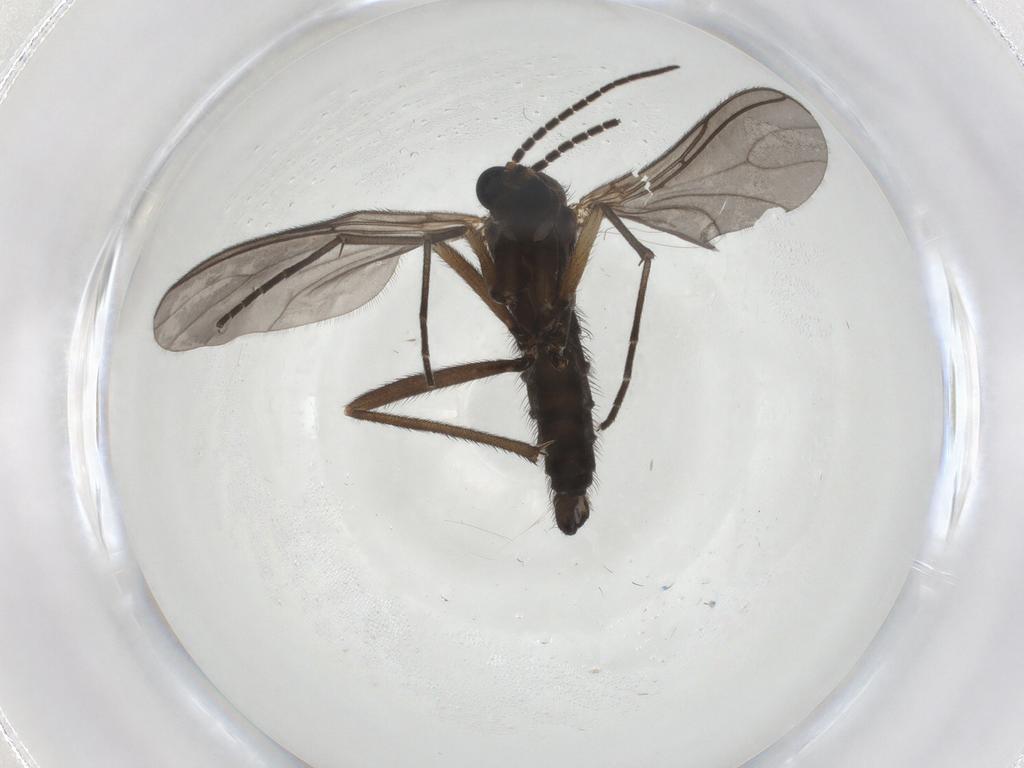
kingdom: Animalia
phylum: Arthropoda
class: Insecta
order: Diptera
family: Sciaridae
